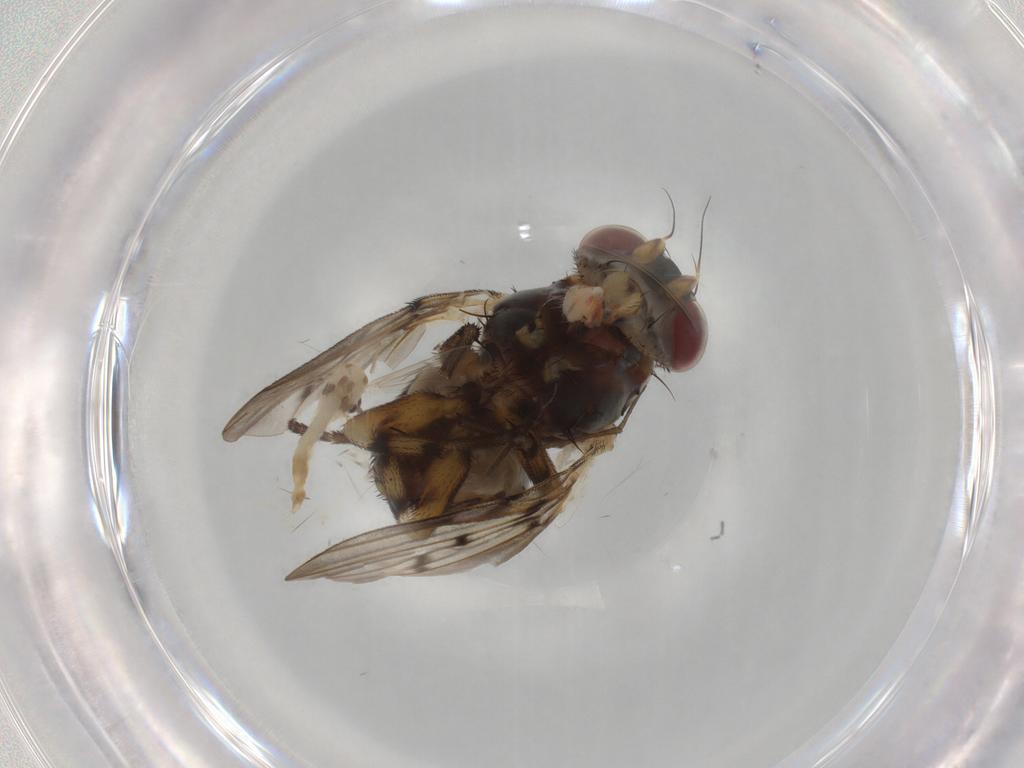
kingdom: Animalia
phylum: Arthropoda
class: Insecta
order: Diptera
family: Odiniidae
